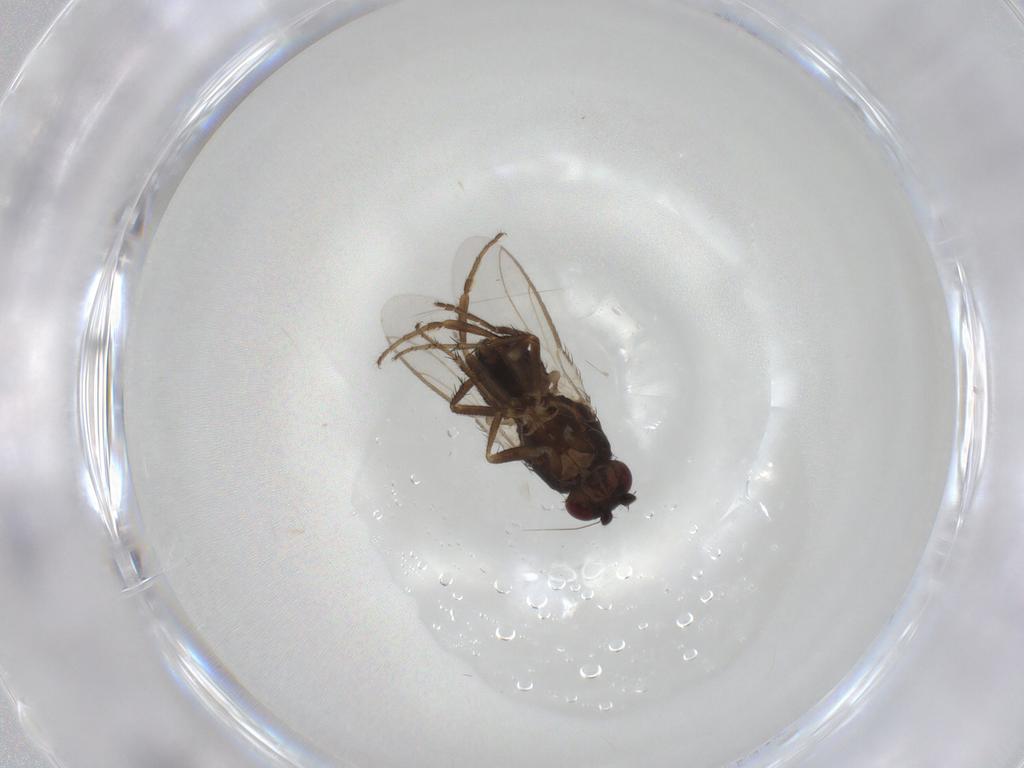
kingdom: Animalia
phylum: Arthropoda
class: Insecta
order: Diptera
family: Sphaeroceridae
